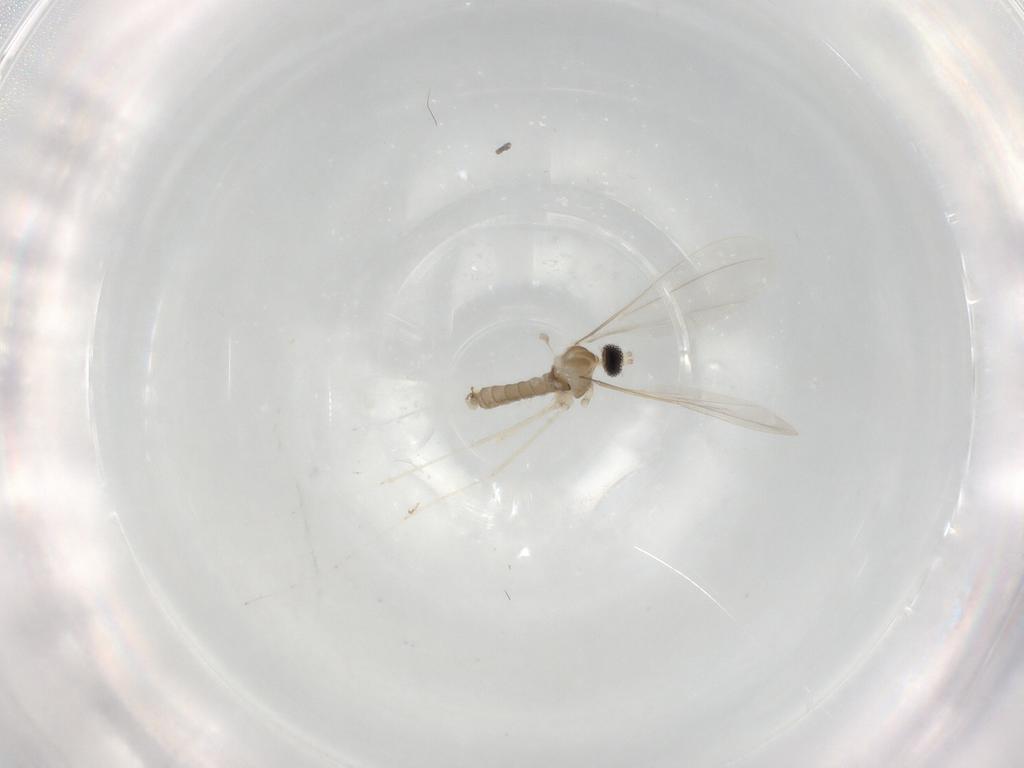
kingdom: Animalia
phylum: Arthropoda
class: Insecta
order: Diptera
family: Cecidomyiidae
